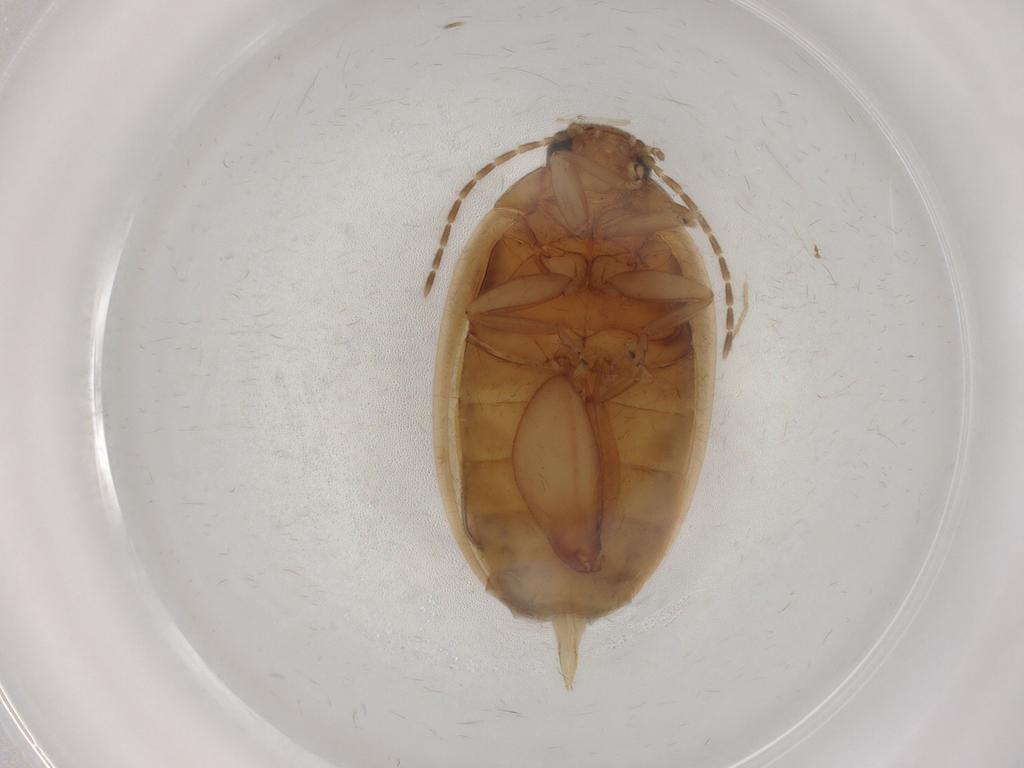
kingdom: Animalia
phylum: Arthropoda
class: Insecta
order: Coleoptera
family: Scirtidae
